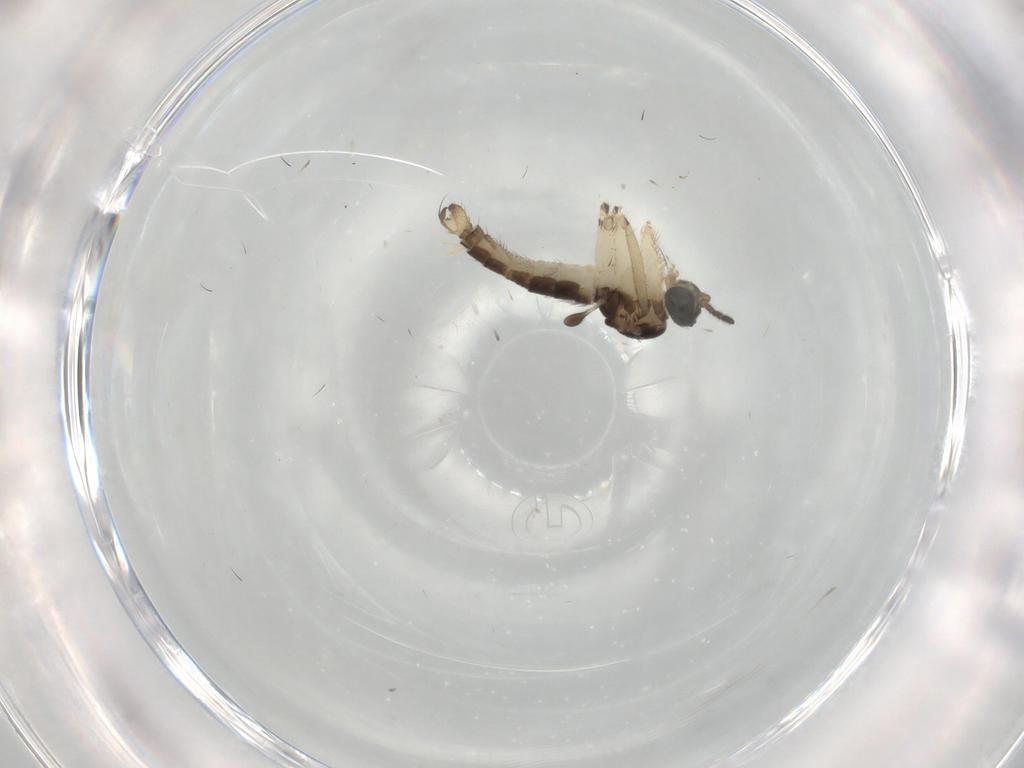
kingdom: Animalia
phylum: Arthropoda
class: Insecta
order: Diptera
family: Sciaridae
